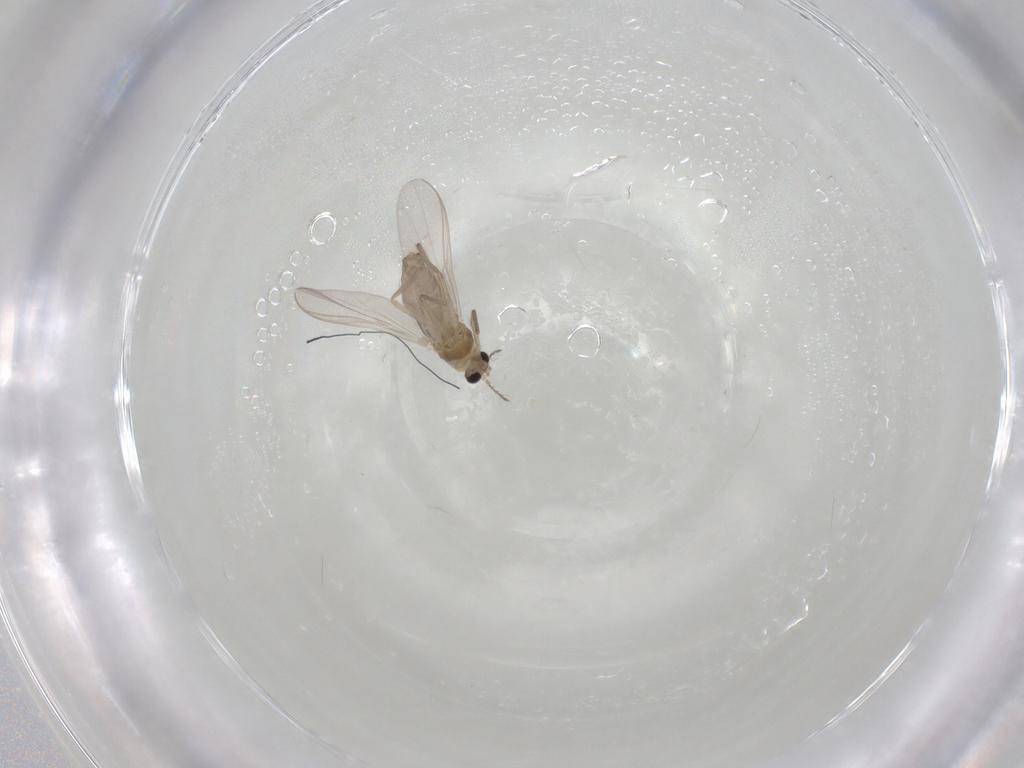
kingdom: Animalia
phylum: Arthropoda
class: Insecta
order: Diptera
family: Chironomidae
